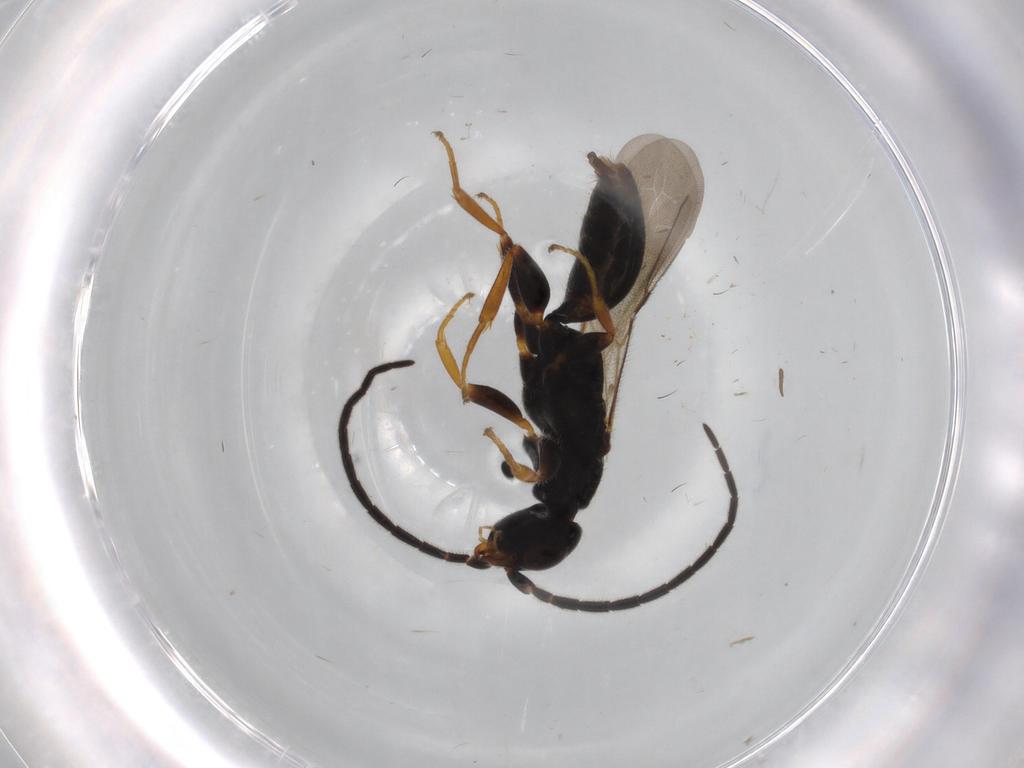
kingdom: Animalia
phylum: Arthropoda
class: Insecta
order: Hymenoptera
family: Bethylidae
